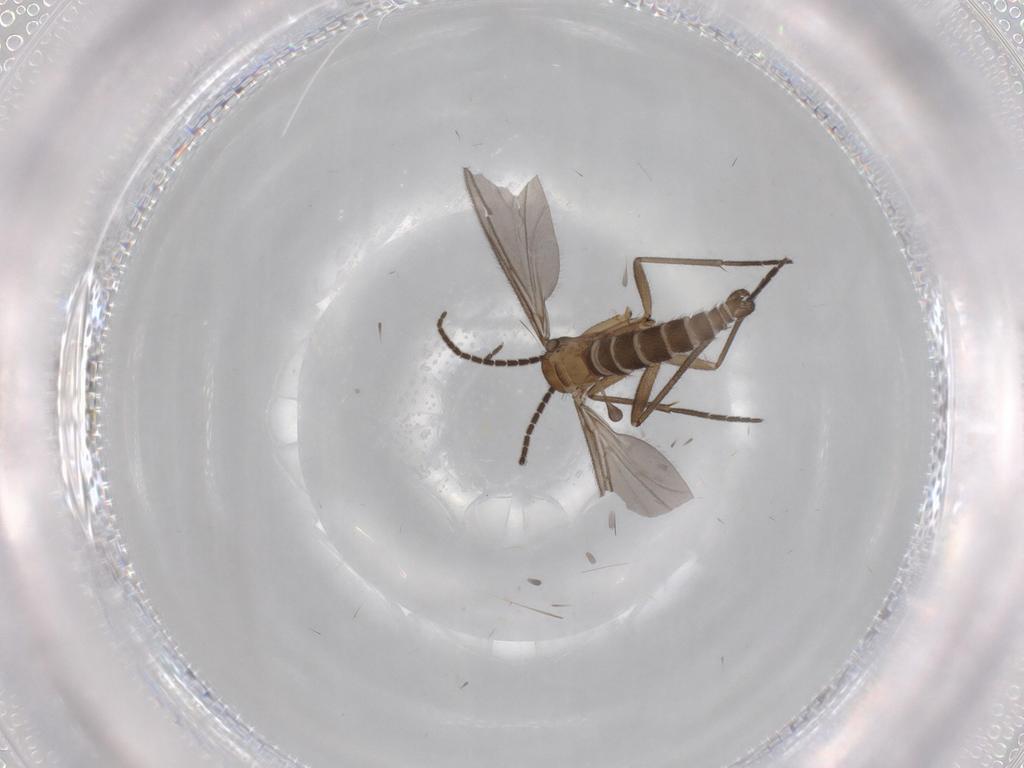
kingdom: Animalia
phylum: Arthropoda
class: Insecta
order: Diptera
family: Sciaridae
